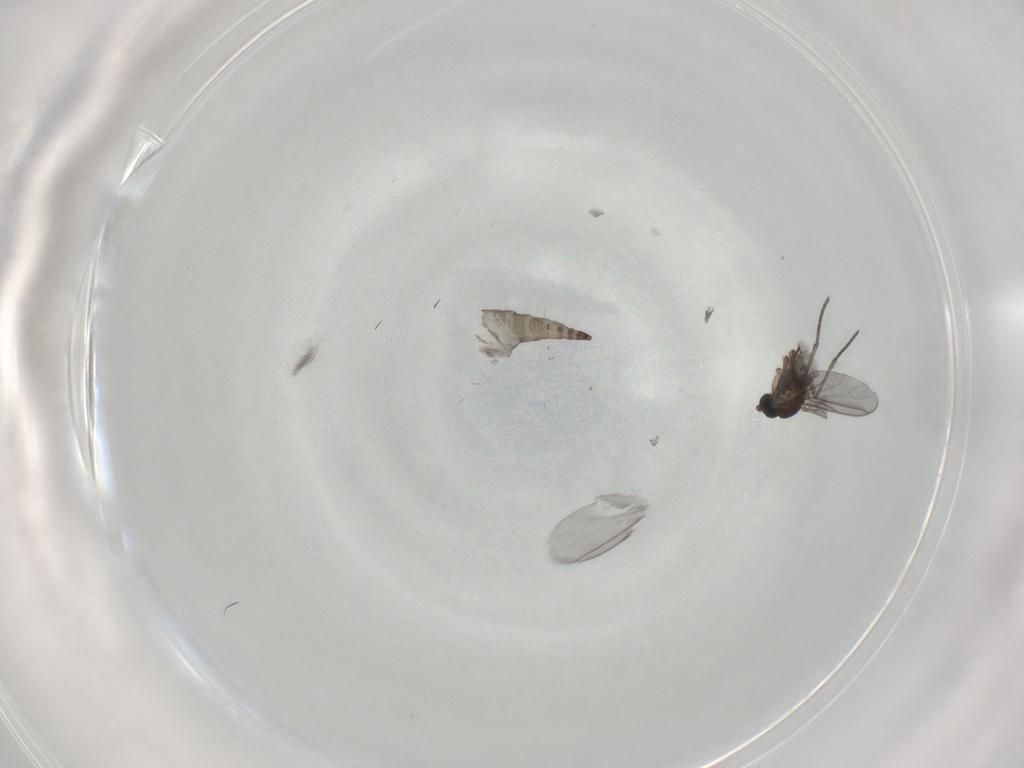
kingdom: Animalia
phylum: Arthropoda
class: Insecta
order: Diptera
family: Sciaridae
